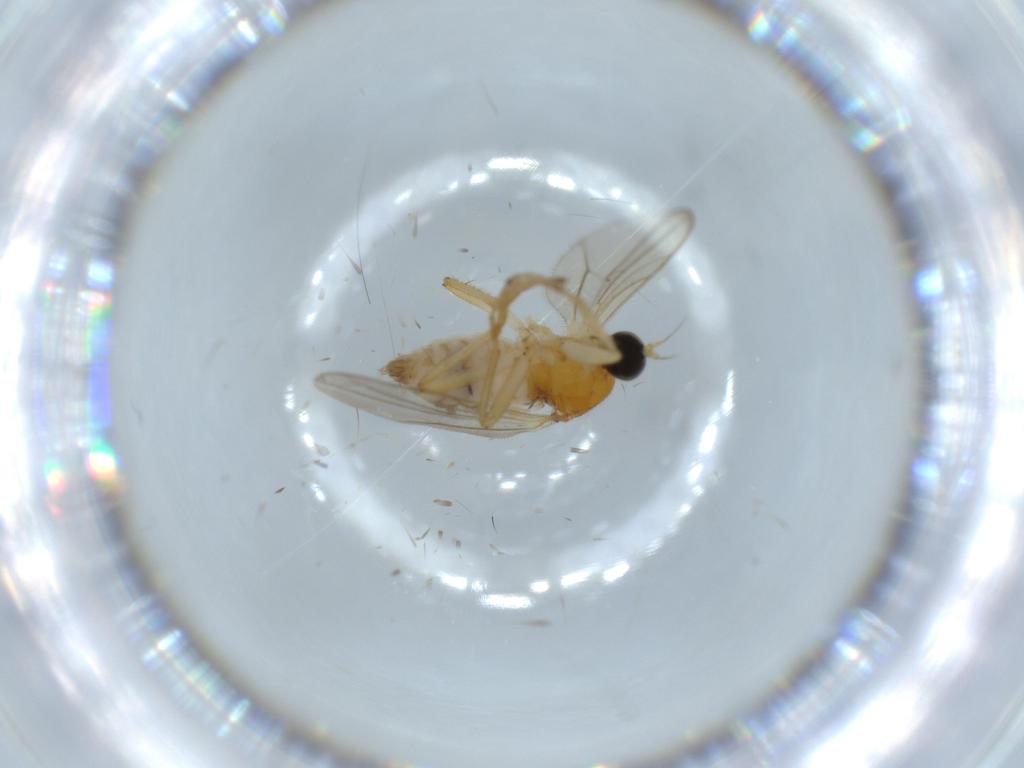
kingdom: Animalia
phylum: Arthropoda
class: Insecta
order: Diptera
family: Hybotidae
